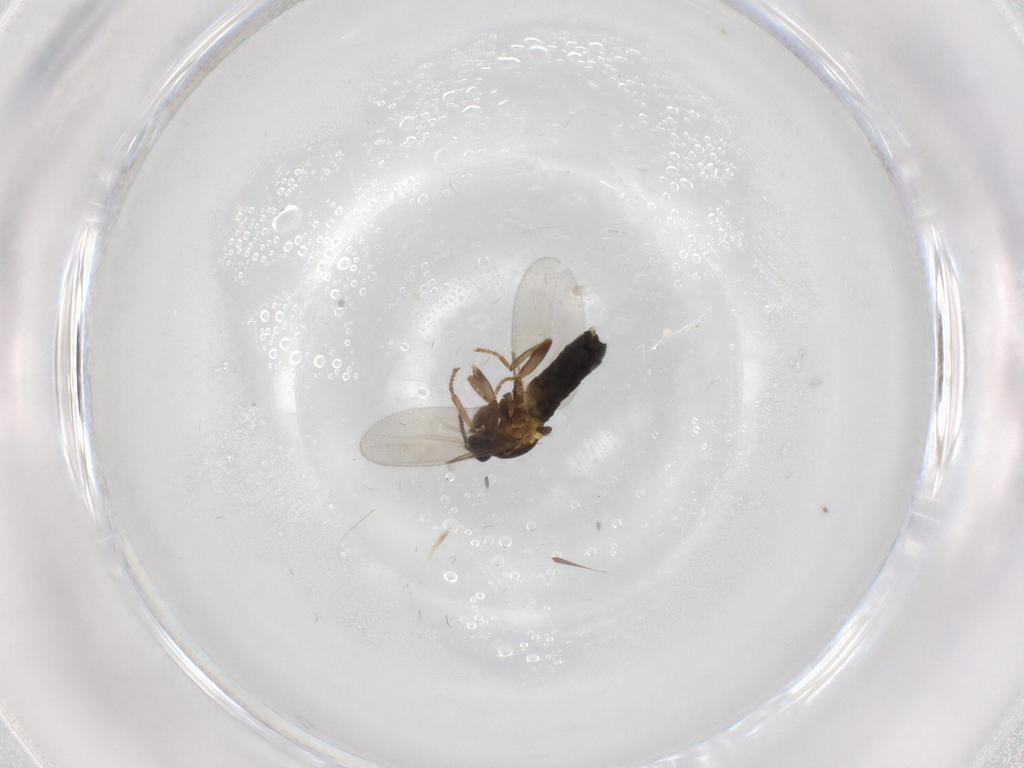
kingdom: Animalia
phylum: Arthropoda
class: Insecta
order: Diptera
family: Scatopsidae
